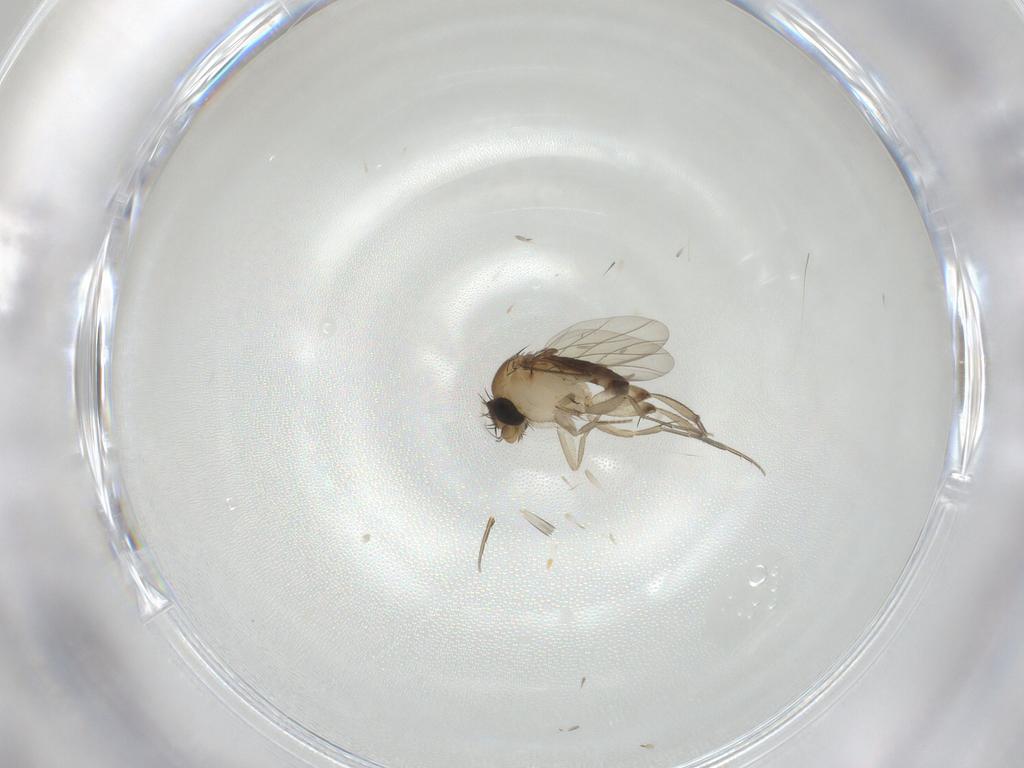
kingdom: Animalia
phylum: Arthropoda
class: Insecta
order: Diptera
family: Phoridae
